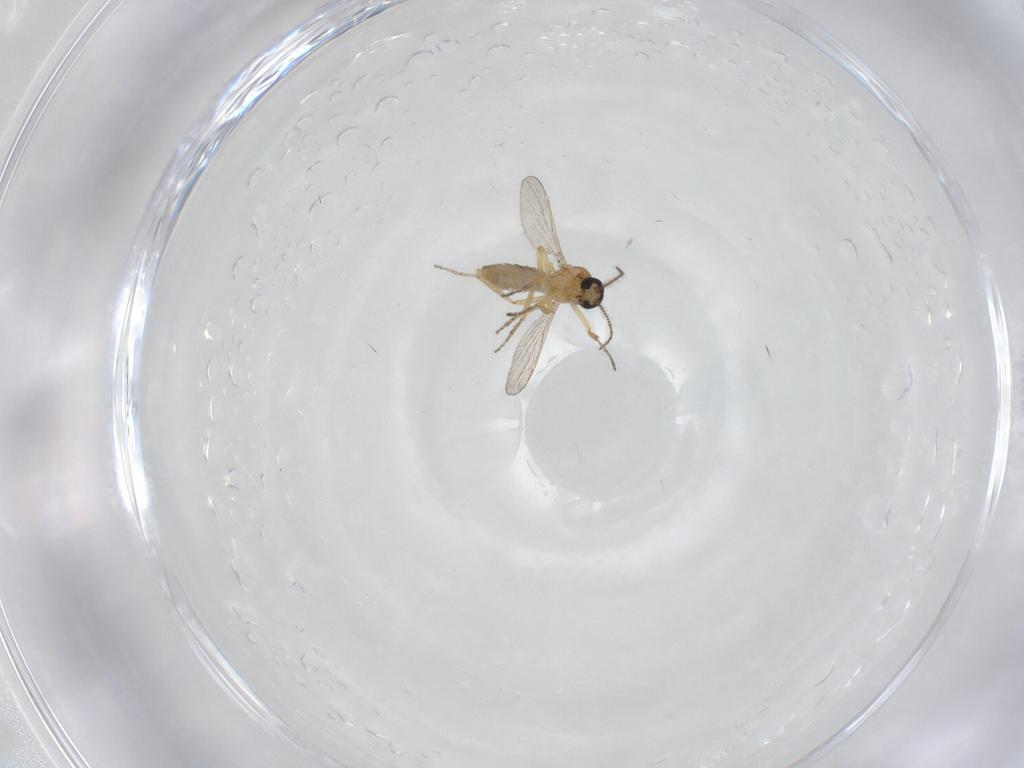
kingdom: Animalia
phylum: Arthropoda
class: Insecta
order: Diptera
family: Ceratopogonidae
